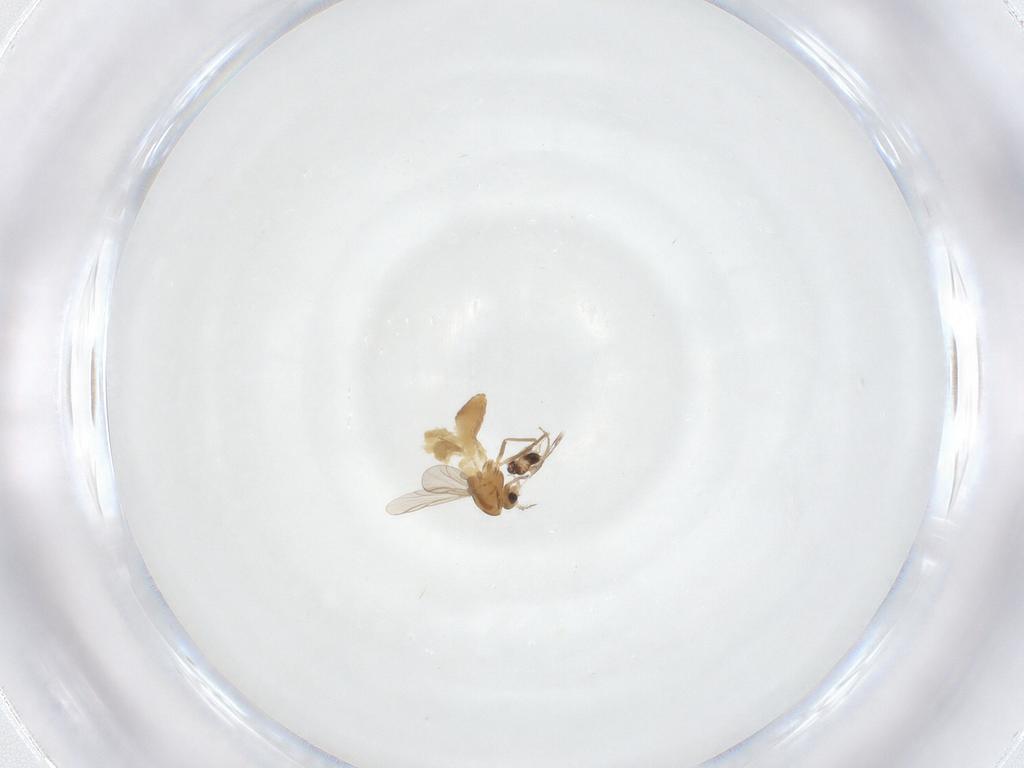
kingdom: Animalia
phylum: Arthropoda
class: Insecta
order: Diptera
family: Chironomidae
